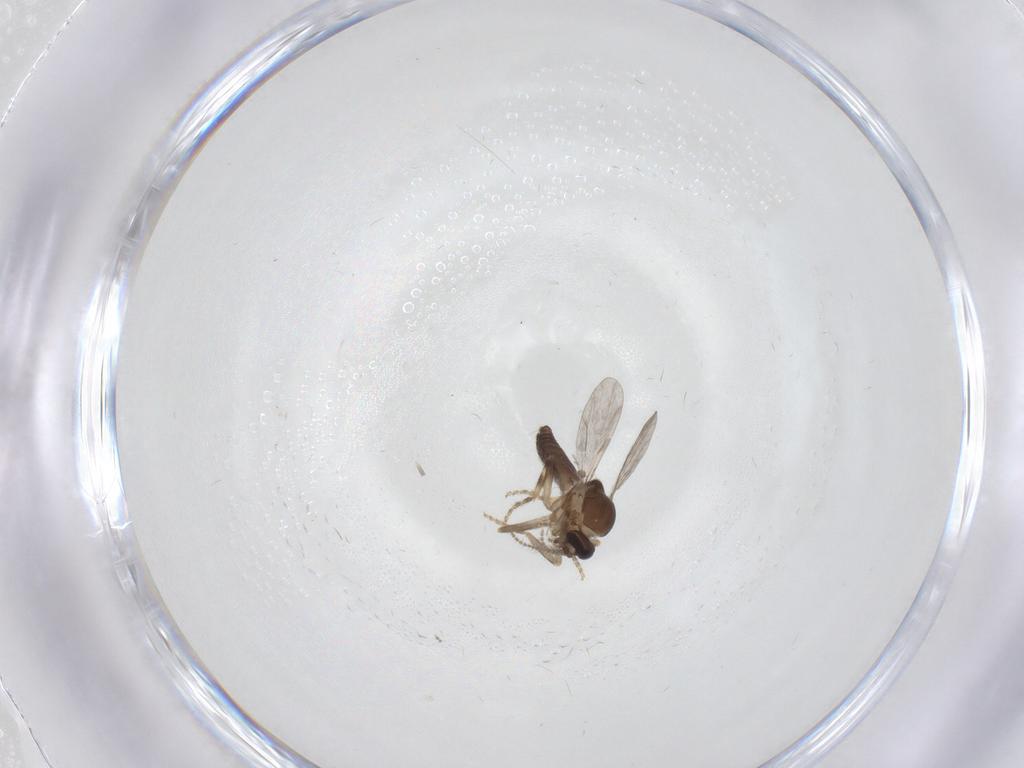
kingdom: Animalia
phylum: Arthropoda
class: Insecta
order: Diptera
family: Ceratopogonidae
